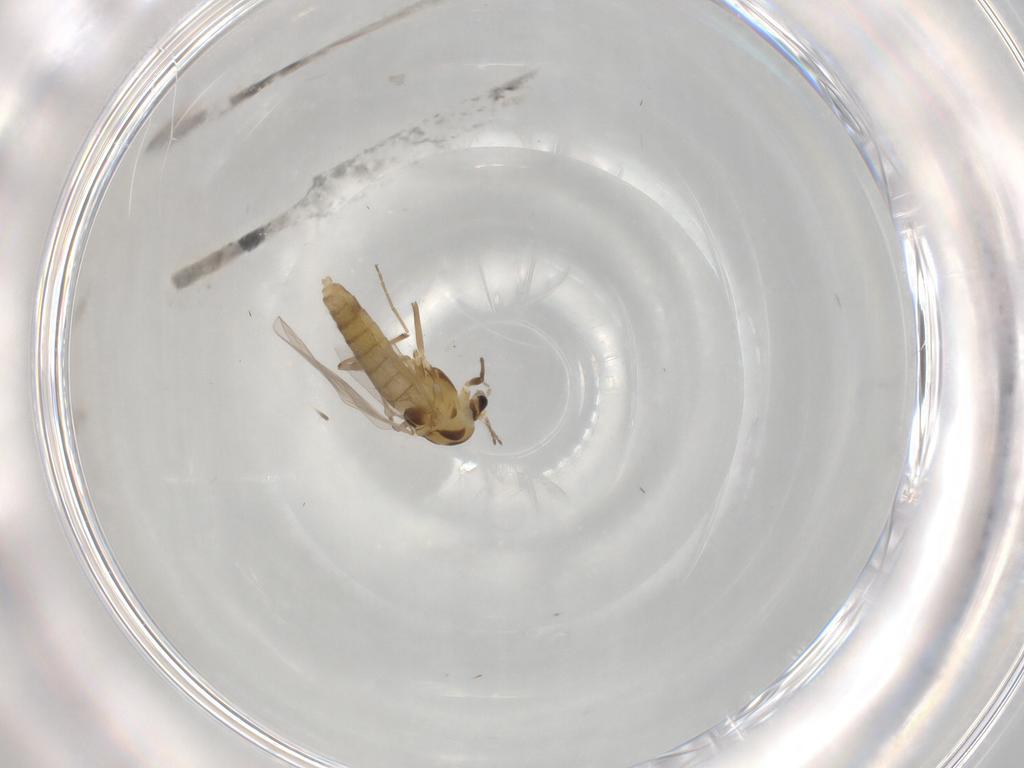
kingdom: Animalia
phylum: Arthropoda
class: Insecta
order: Diptera
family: Cecidomyiidae
